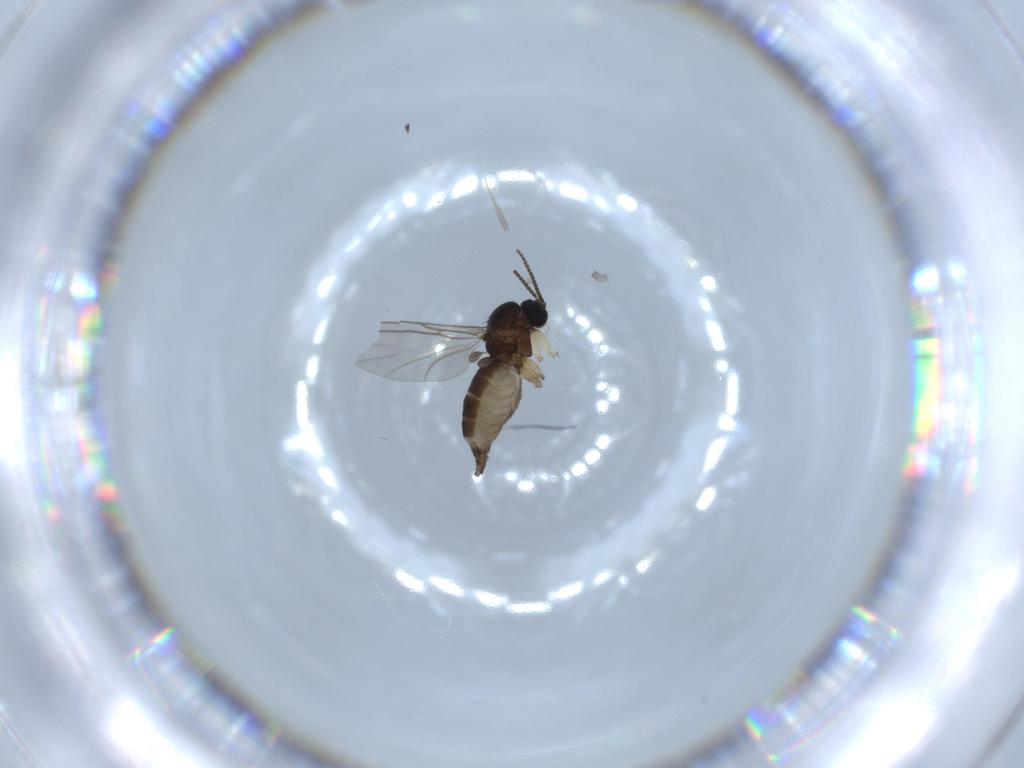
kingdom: Animalia
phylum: Arthropoda
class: Insecta
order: Diptera
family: Sciaridae
